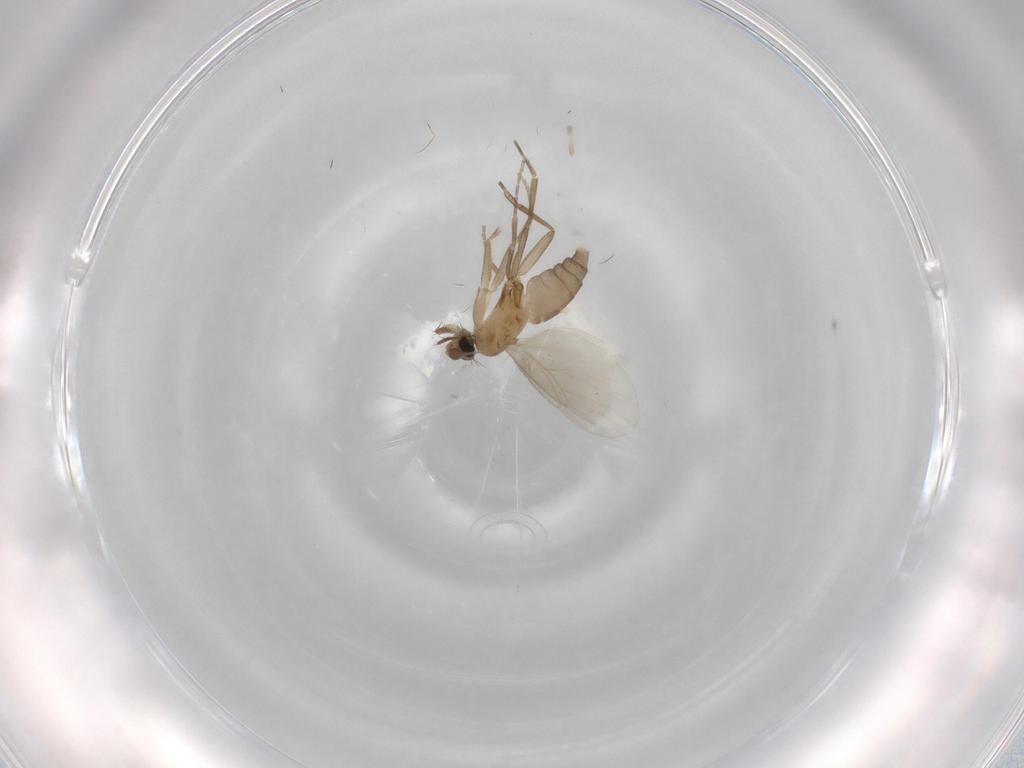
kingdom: Animalia
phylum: Arthropoda
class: Insecta
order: Diptera
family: Phoridae
